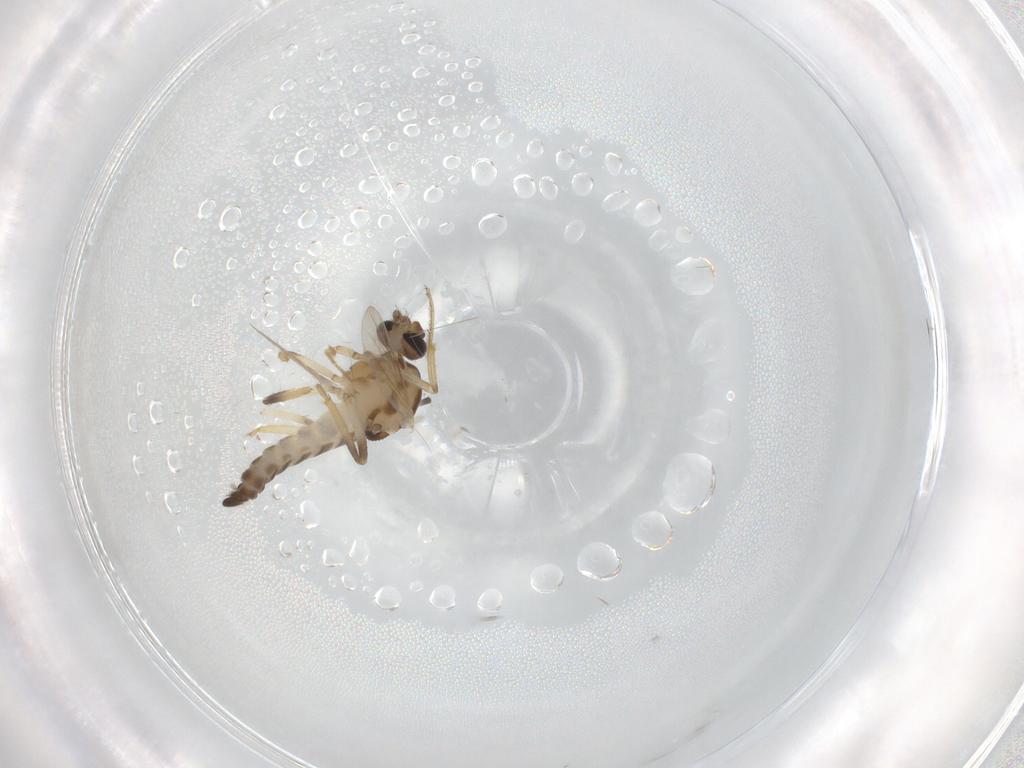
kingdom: Animalia
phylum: Arthropoda
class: Insecta
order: Diptera
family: Ceratopogonidae
